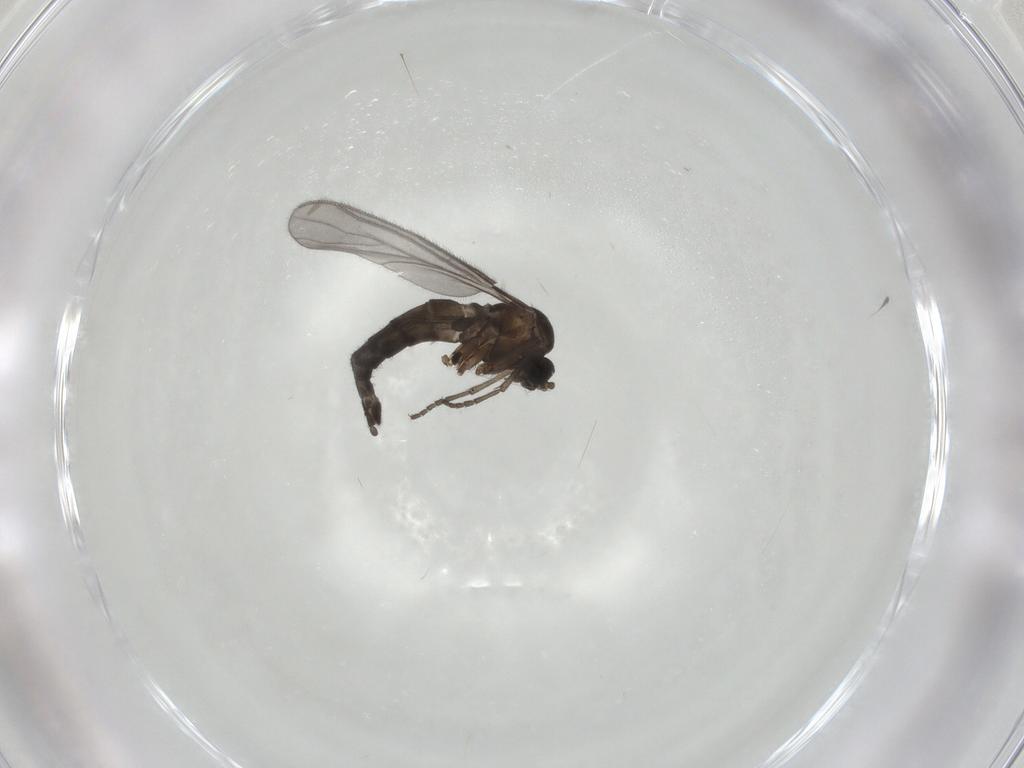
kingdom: Animalia
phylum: Arthropoda
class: Insecta
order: Diptera
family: Sciaridae
